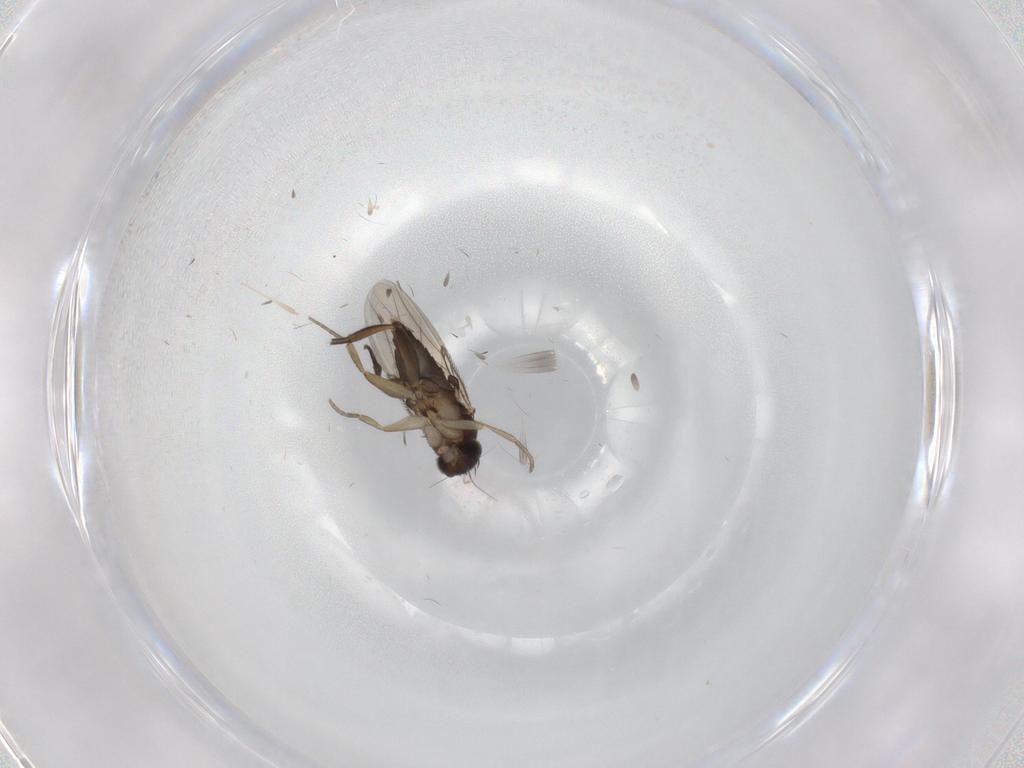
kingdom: Animalia
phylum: Arthropoda
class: Insecta
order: Diptera
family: Phoridae
